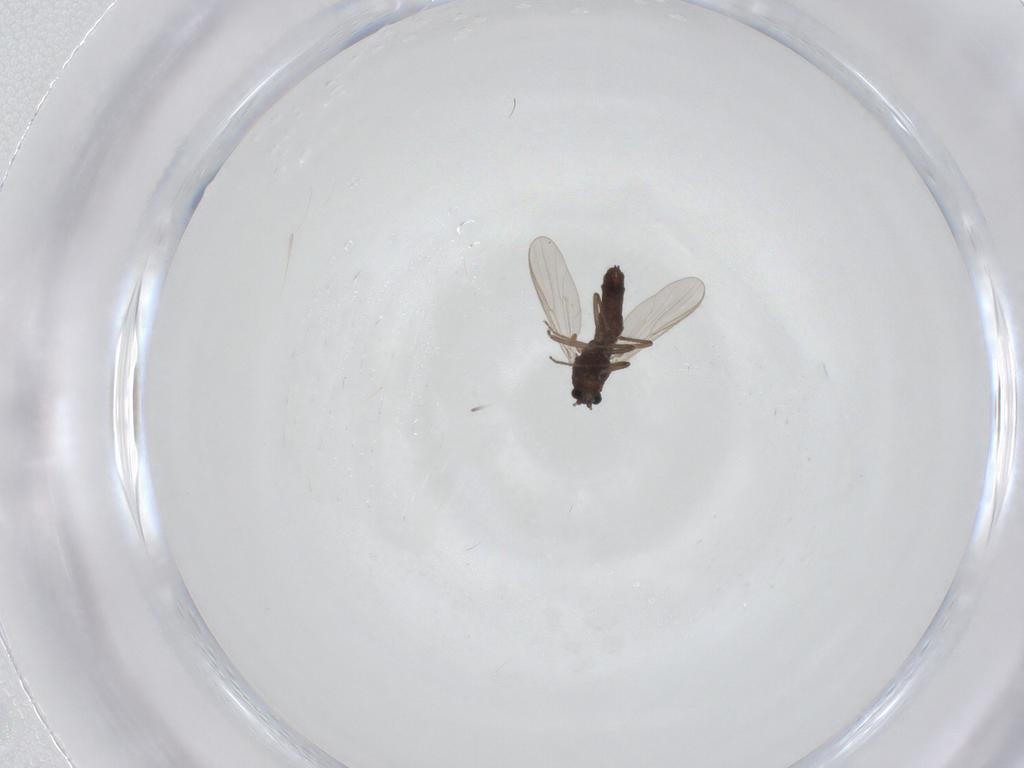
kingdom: Animalia
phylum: Arthropoda
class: Insecta
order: Diptera
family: Chironomidae
